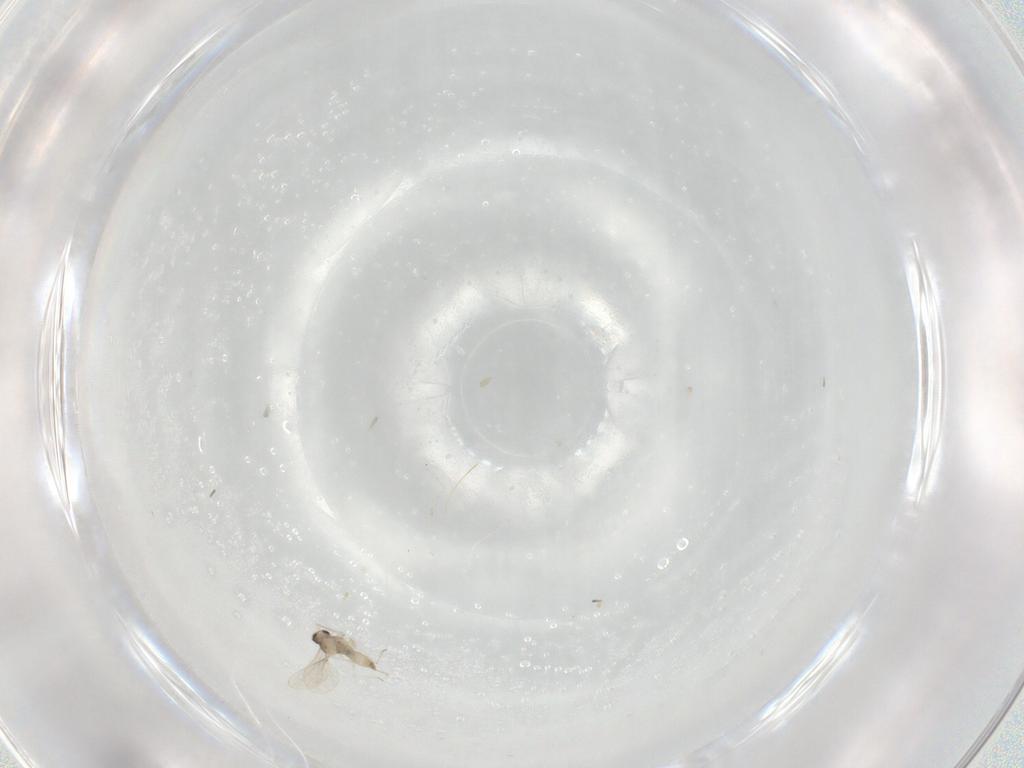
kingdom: Animalia
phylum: Arthropoda
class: Insecta
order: Diptera
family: Cecidomyiidae
